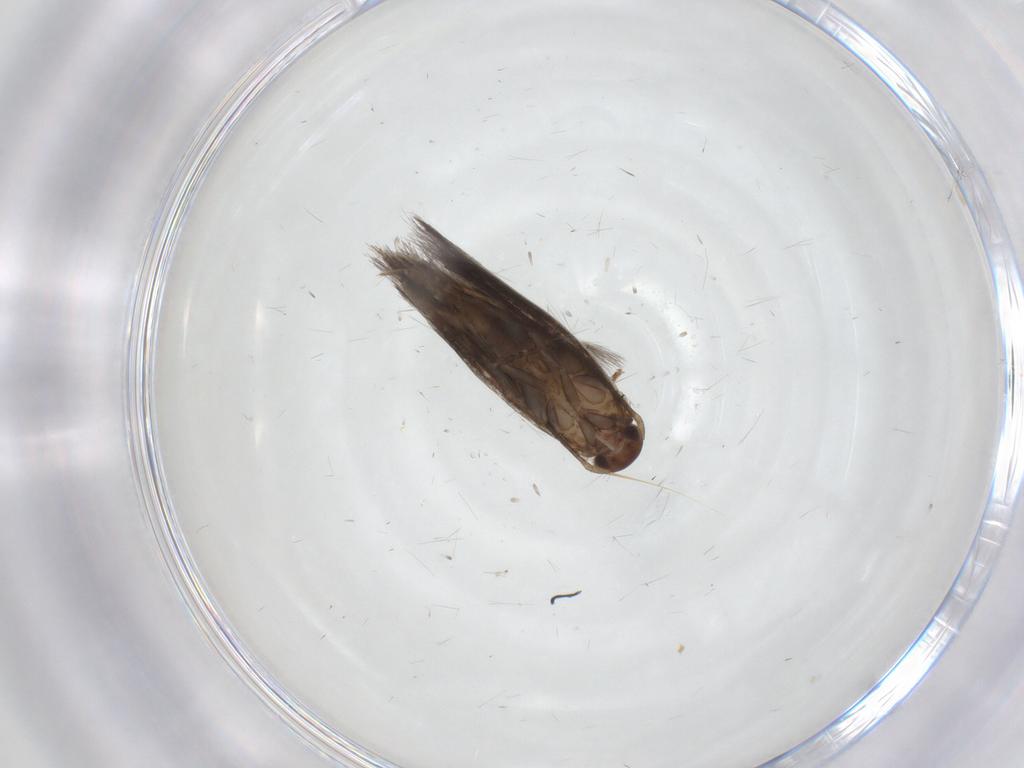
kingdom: Animalia
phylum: Arthropoda
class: Insecta
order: Lepidoptera
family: Elachistidae
